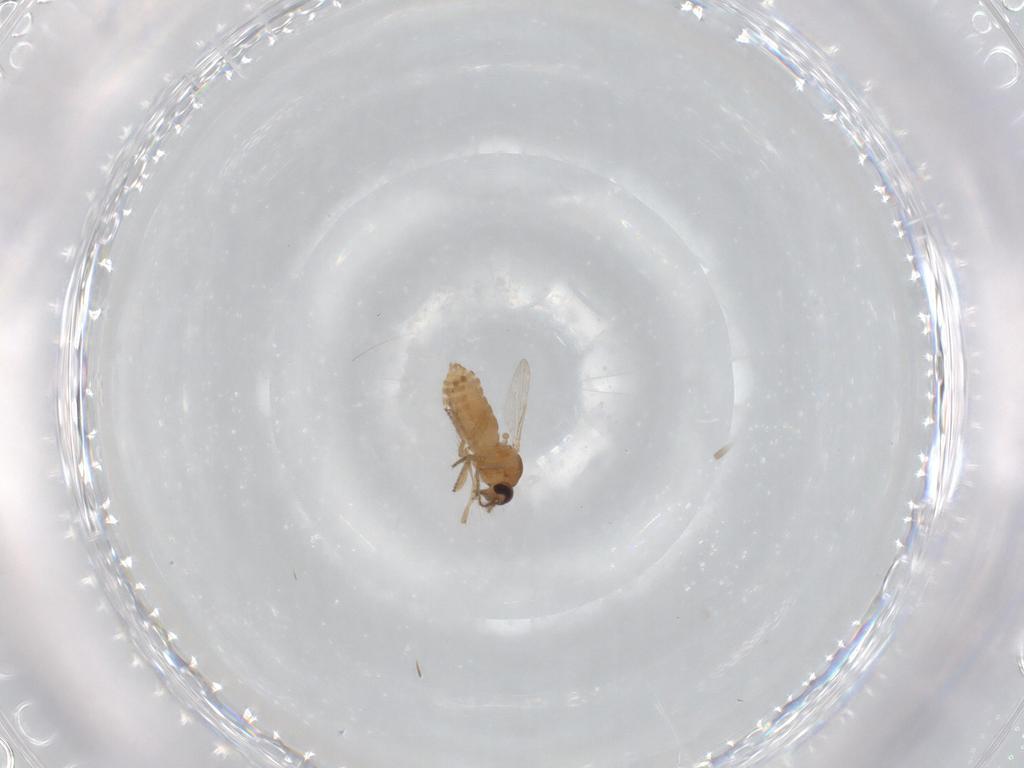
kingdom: Animalia
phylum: Arthropoda
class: Insecta
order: Diptera
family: Ceratopogonidae
